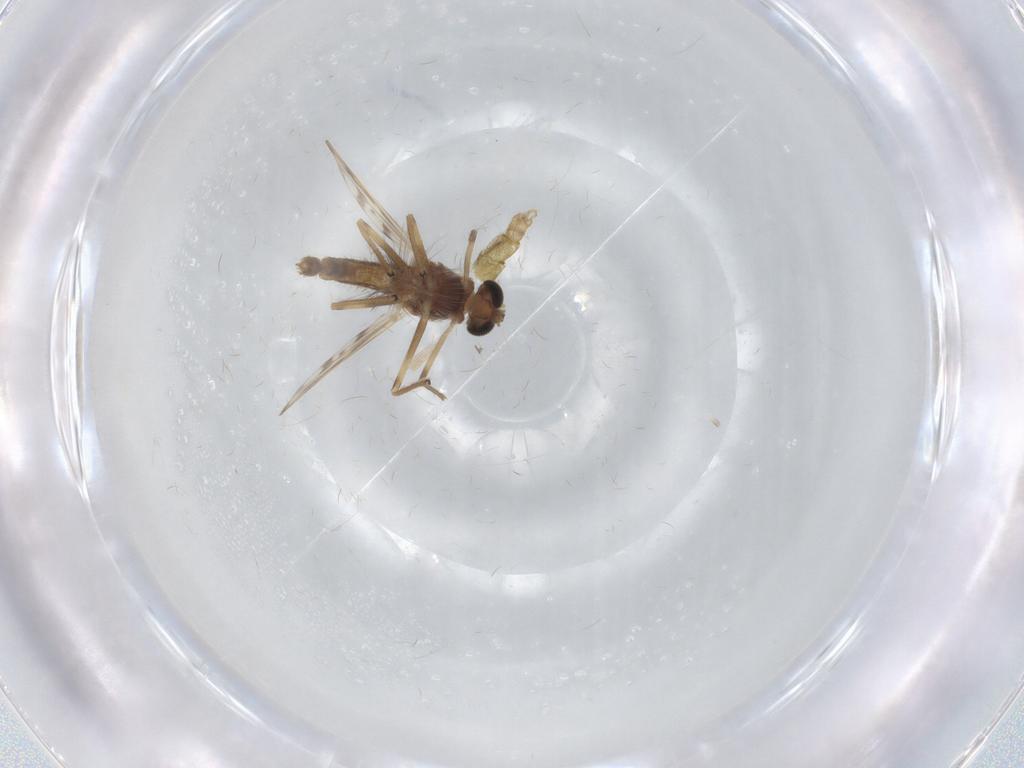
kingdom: Animalia
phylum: Arthropoda
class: Insecta
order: Diptera
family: Chironomidae
